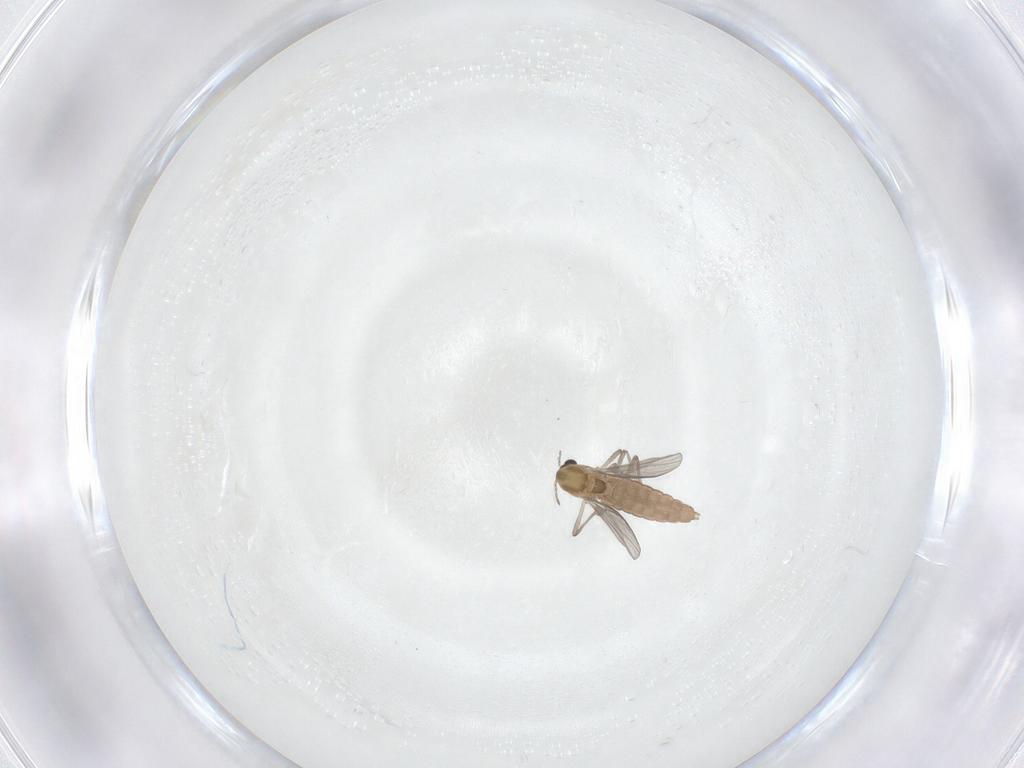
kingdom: Animalia
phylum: Arthropoda
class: Insecta
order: Diptera
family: Chironomidae
